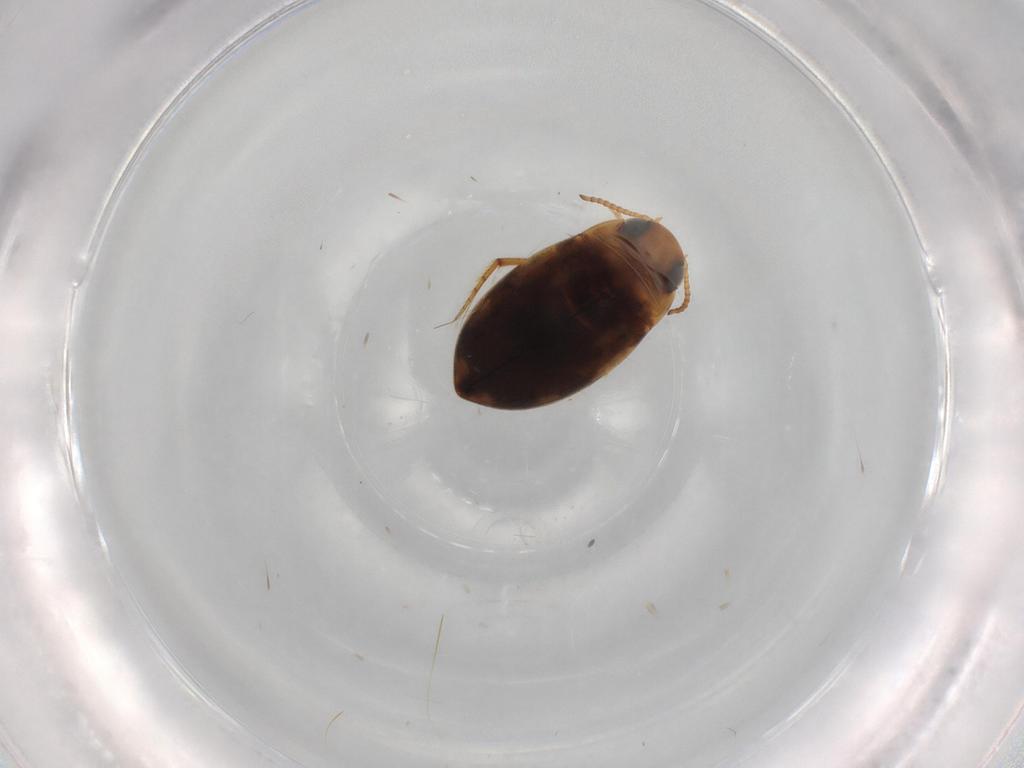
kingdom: Animalia
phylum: Arthropoda
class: Insecta
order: Coleoptera
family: Dytiscidae
